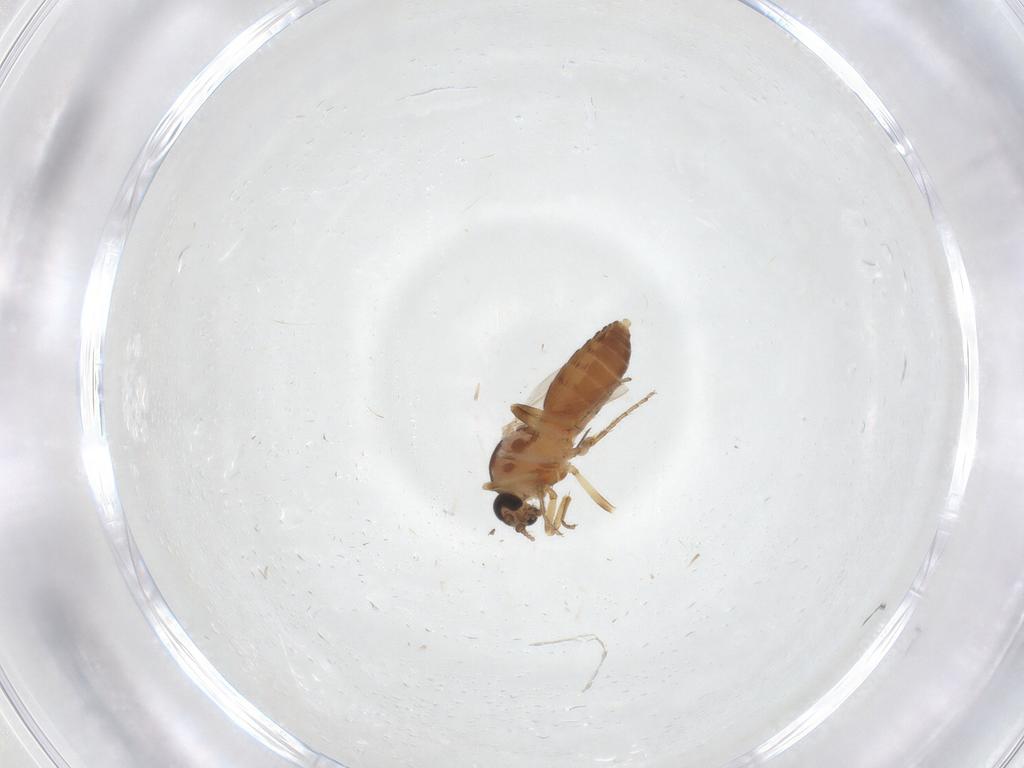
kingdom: Animalia
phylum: Arthropoda
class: Insecta
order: Diptera
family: Ceratopogonidae
